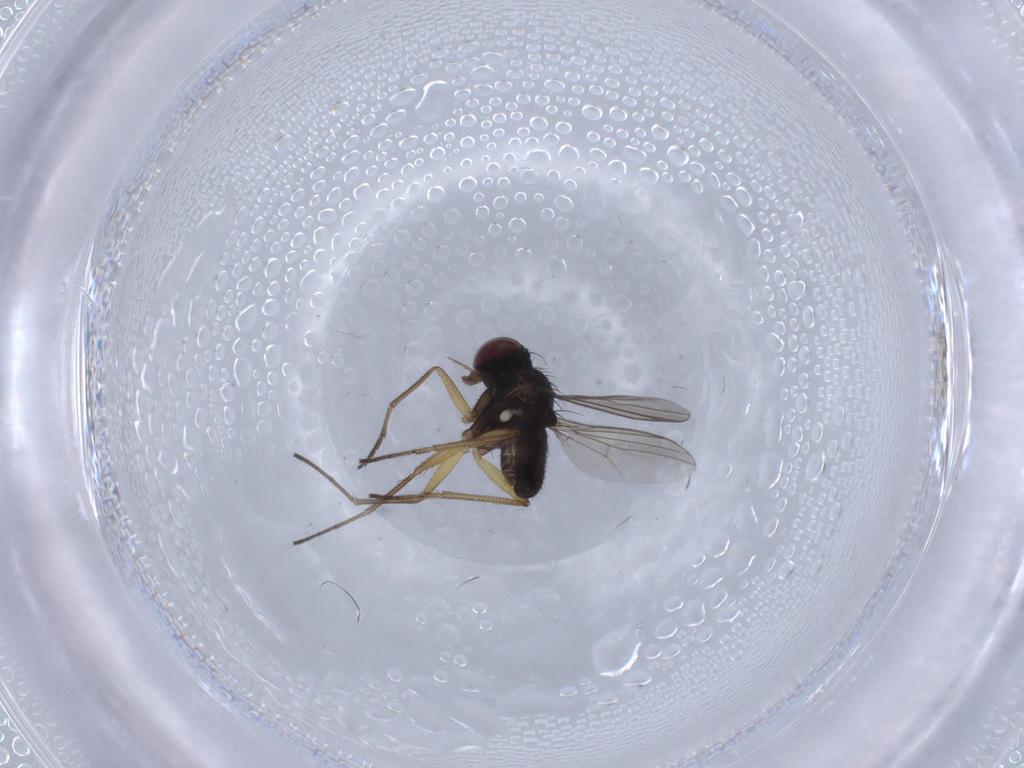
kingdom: Animalia
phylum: Arthropoda
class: Insecta
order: Diptera
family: Dolichopodidae
